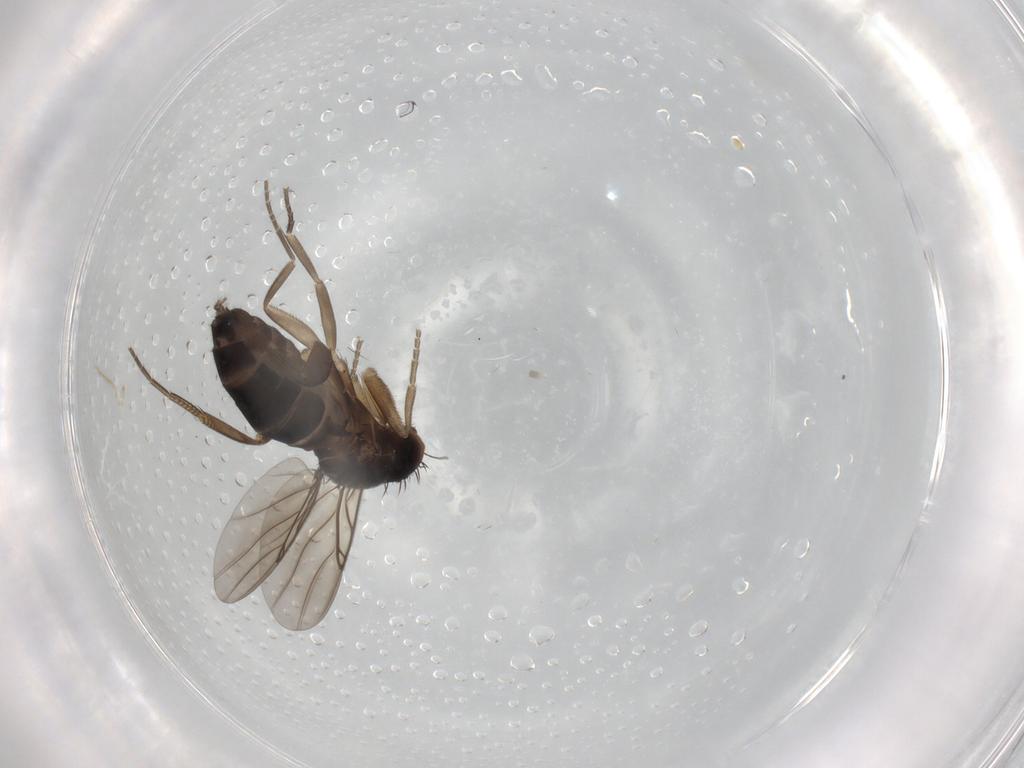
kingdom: Animalia
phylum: Arthropoda
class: Insecta
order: Diptera
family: Phoridae
